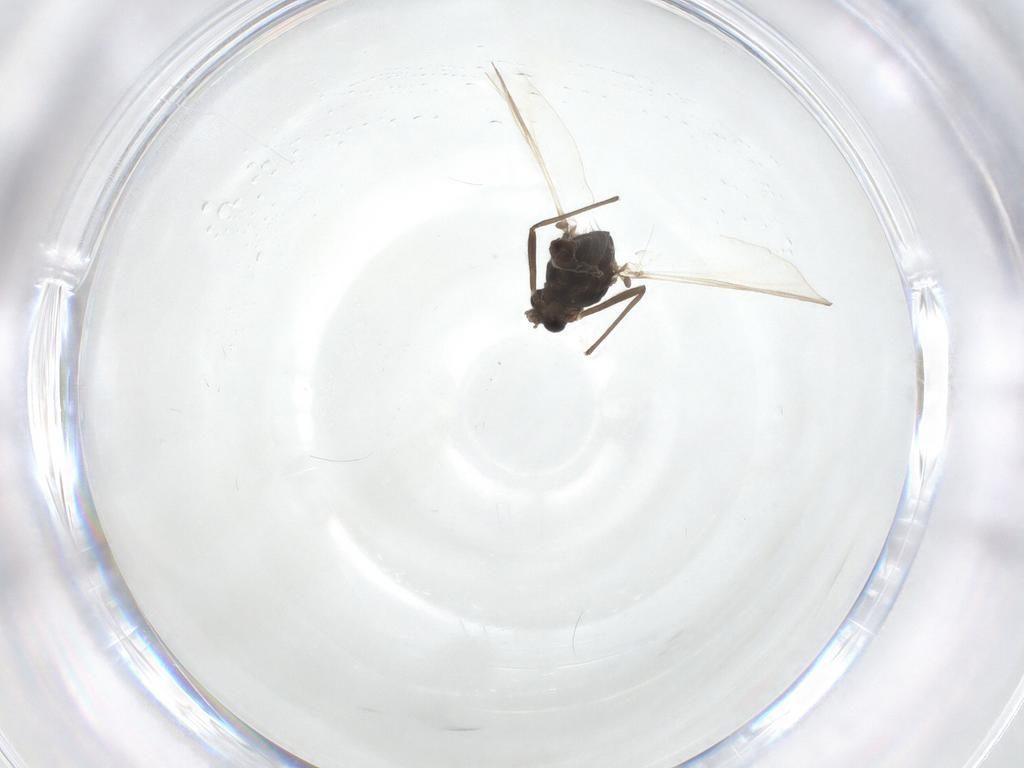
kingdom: Animalia
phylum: Arthropoda
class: Insecta
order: Diptera
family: Chironomidae
